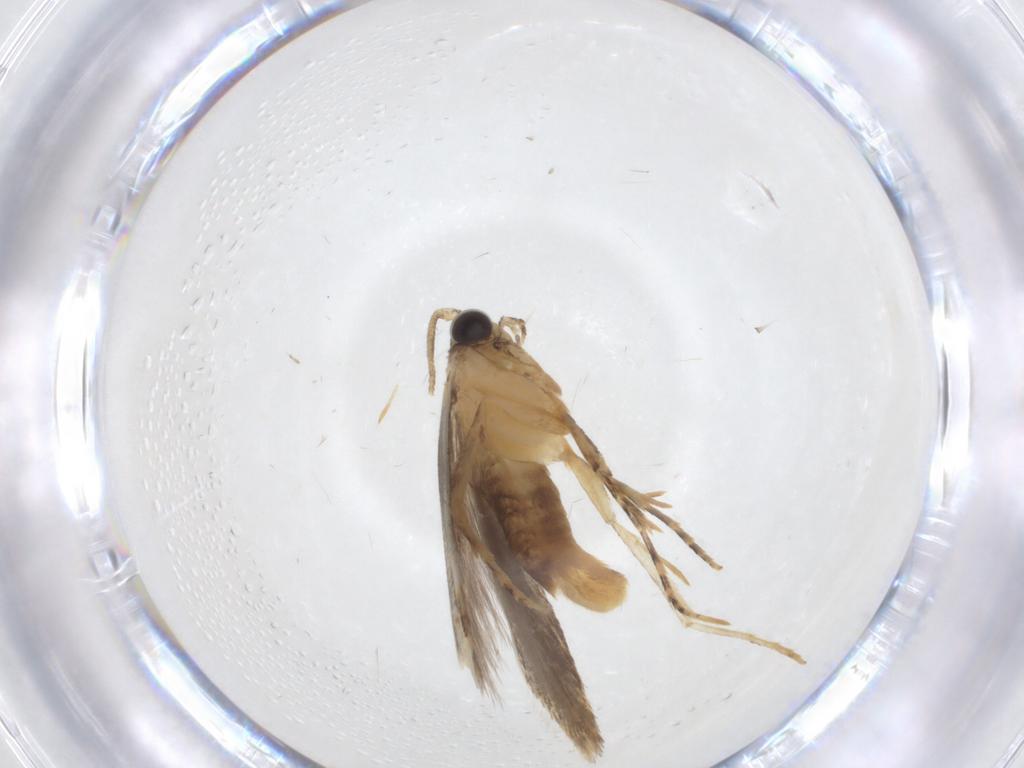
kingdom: Animalia
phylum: Arthropoda
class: Insecta
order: Lepidoptera
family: Tineidae
